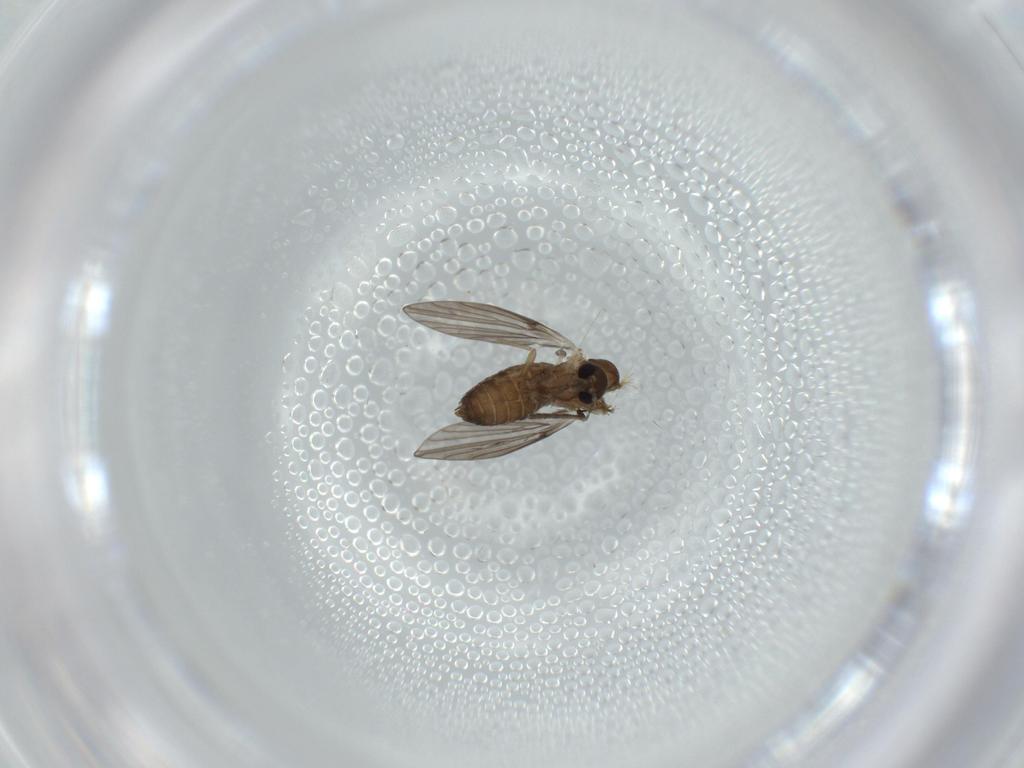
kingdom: Animalia
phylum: Arthropoda
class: Insecta
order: Diptera
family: Psychodidae
